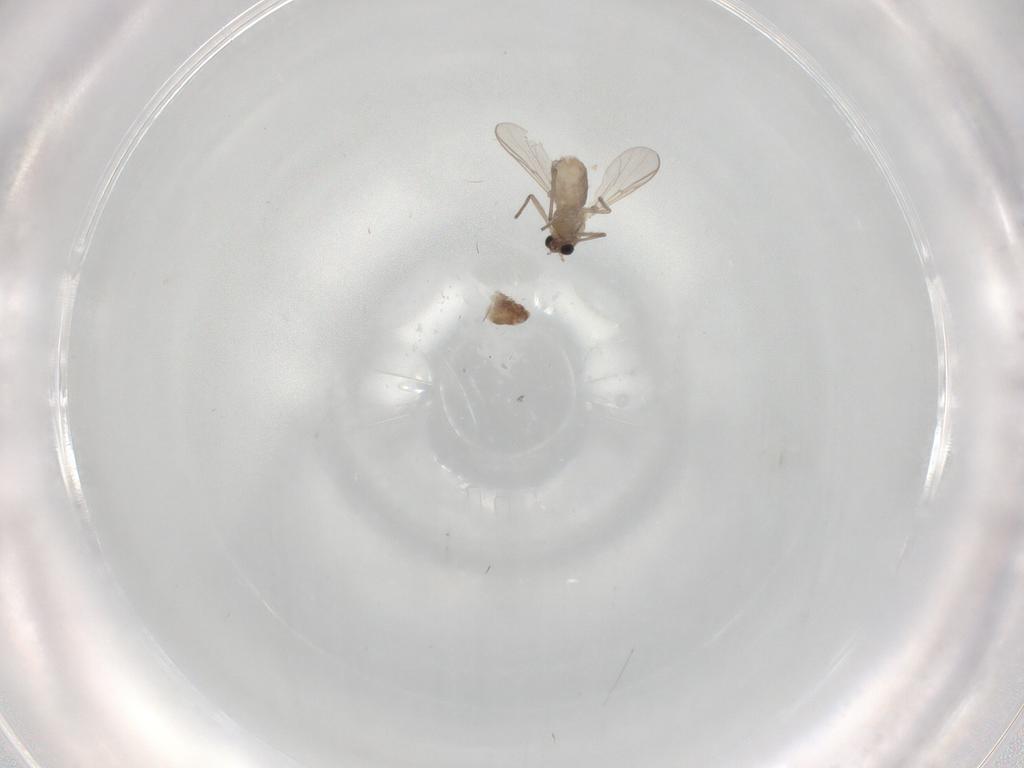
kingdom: Animalia
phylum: Arthropoda
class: Insecta
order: Diptera
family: Chironomidae
